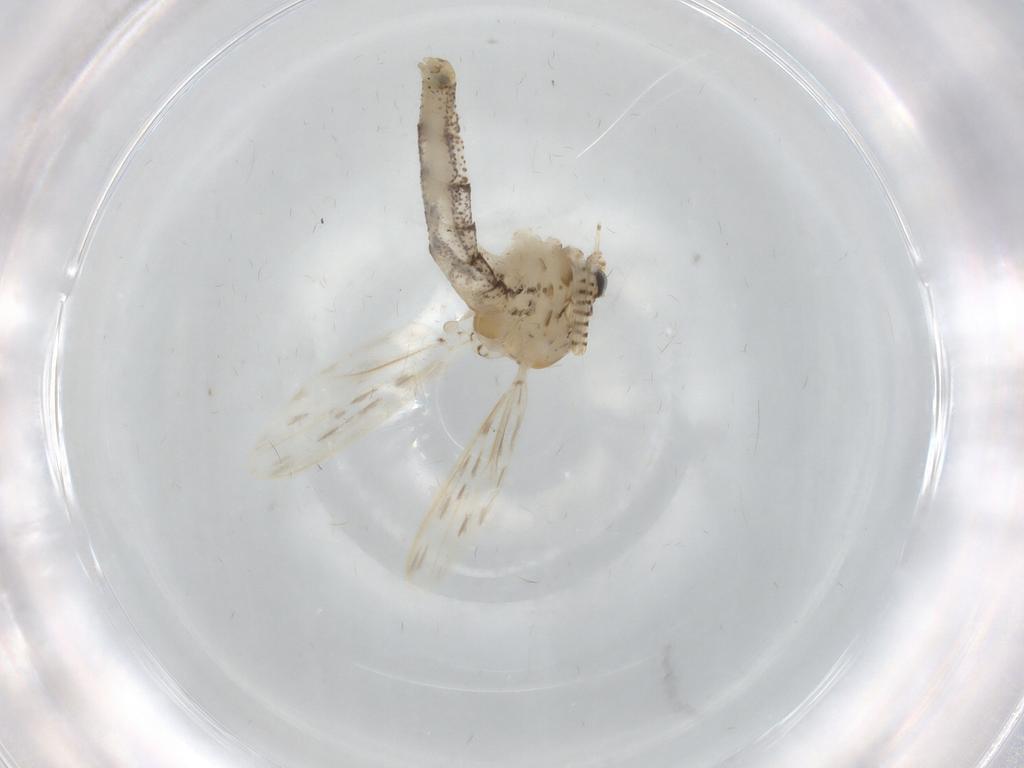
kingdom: Animalia
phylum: Arthropoda
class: Insecta
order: Diptera
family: Chaoboridae
